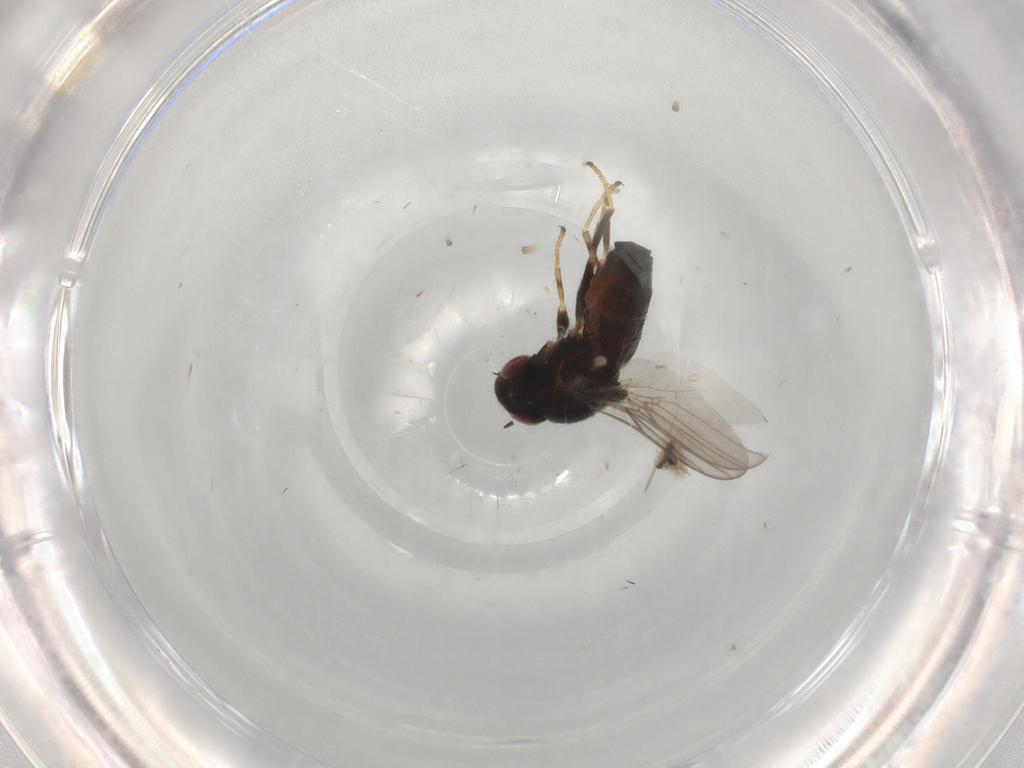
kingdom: Animalia
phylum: Arthropoda
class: Insecta
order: Diptera
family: Chloropidae
